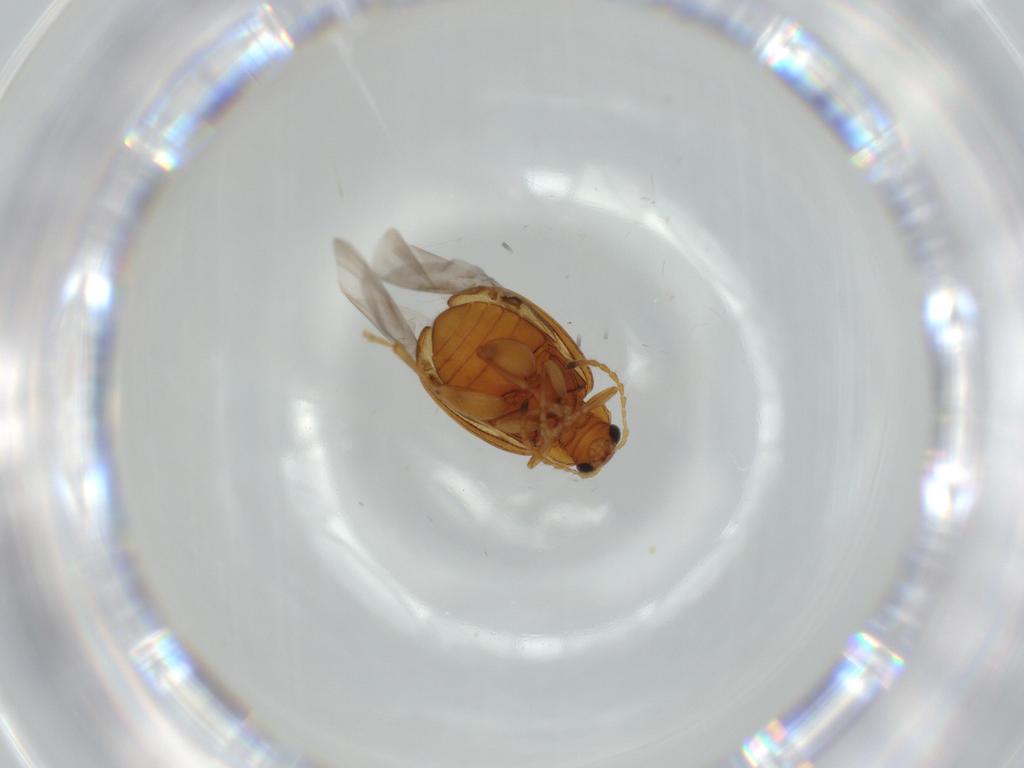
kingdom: Animalia
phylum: Arthropoda
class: Insecta
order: Coleoptera
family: Chrysomelidae
